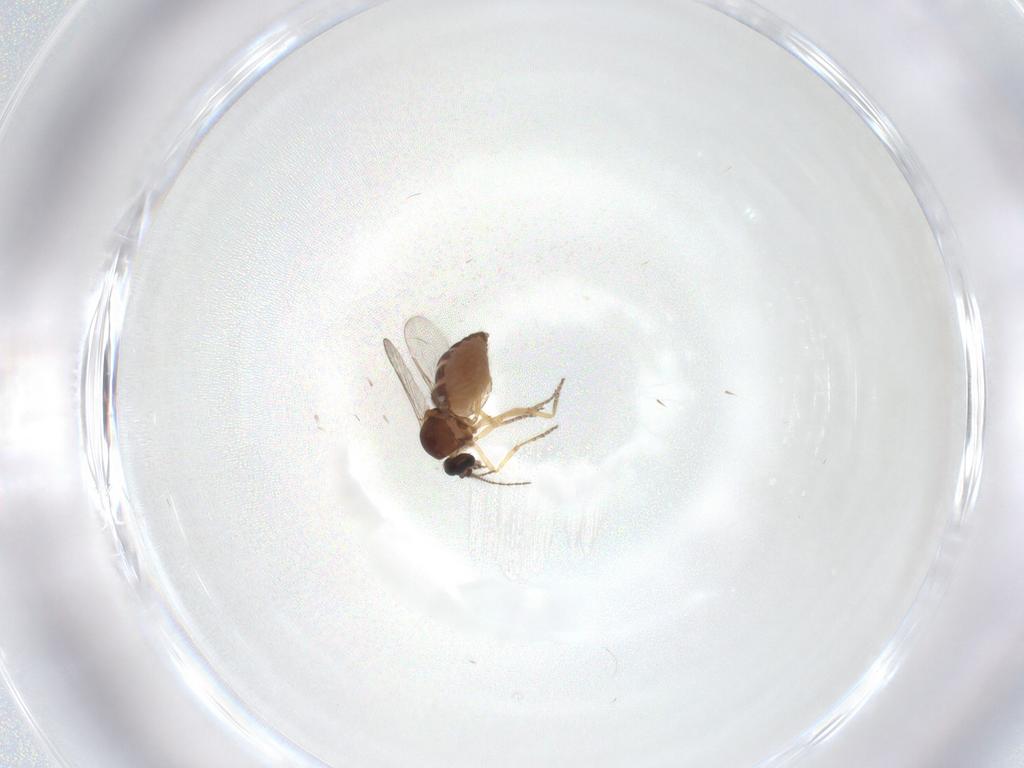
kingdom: Animalia
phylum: Arthropoda
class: Insecta
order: Diptera
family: Ceratopogonidae
